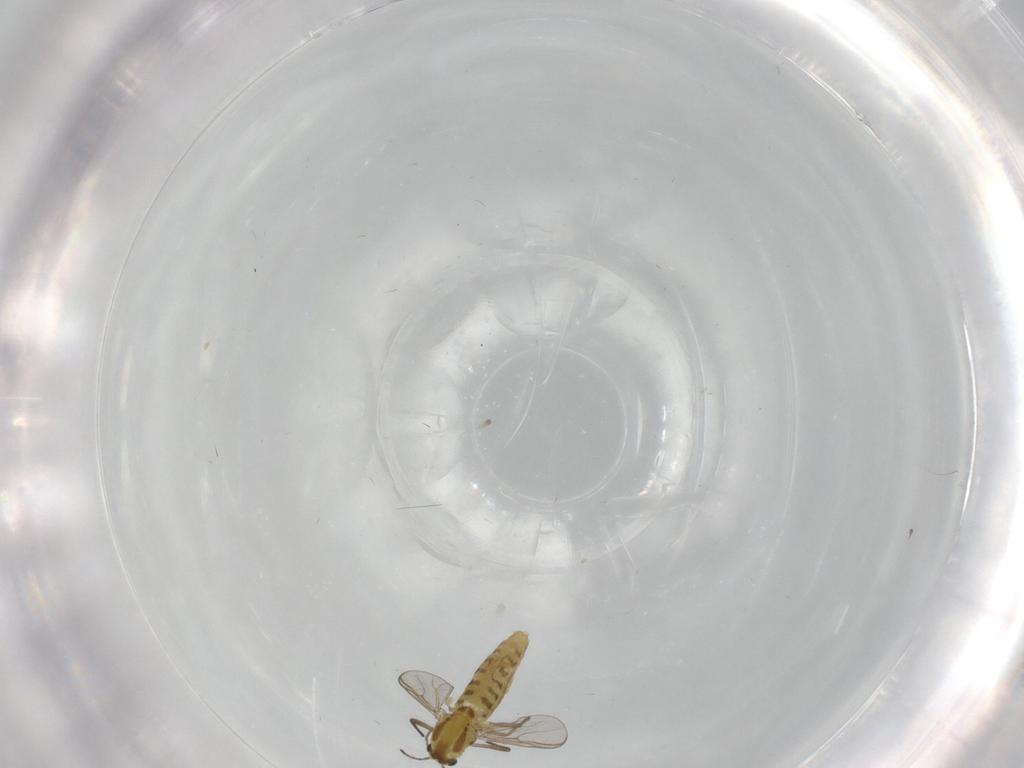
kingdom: Animalia
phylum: Arthropoda
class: Insecta
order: Diptera
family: Chironomidae
